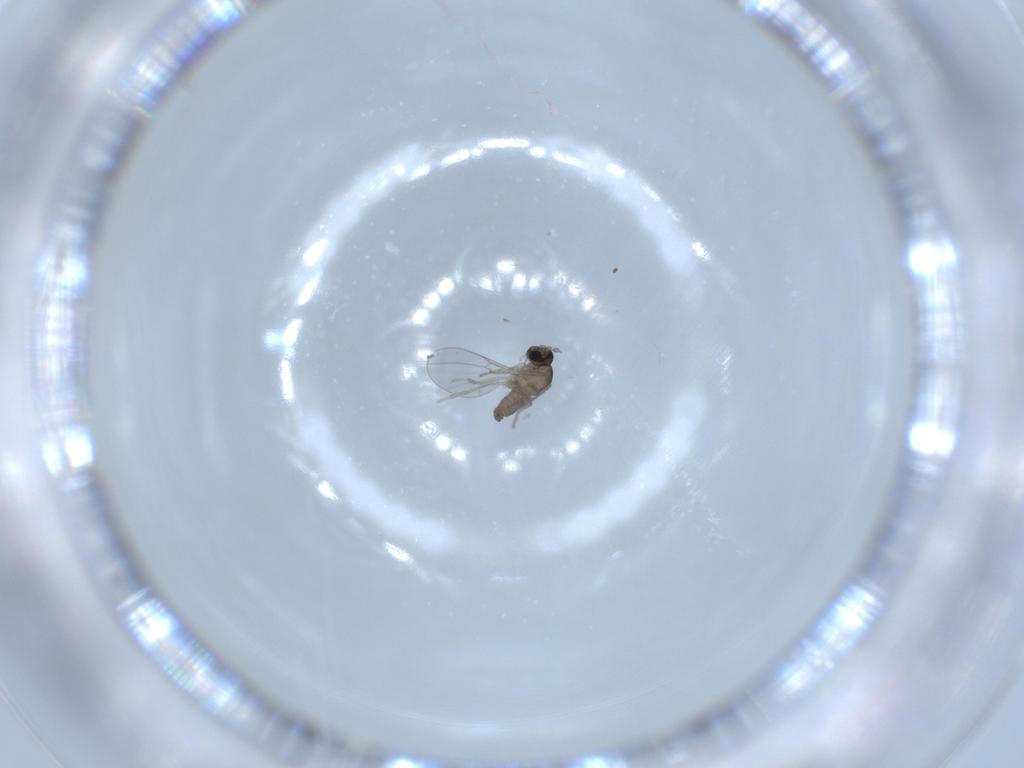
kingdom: Animalia
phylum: Arthropoda
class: Insecta
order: Diptera
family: Cecidomyiidae
